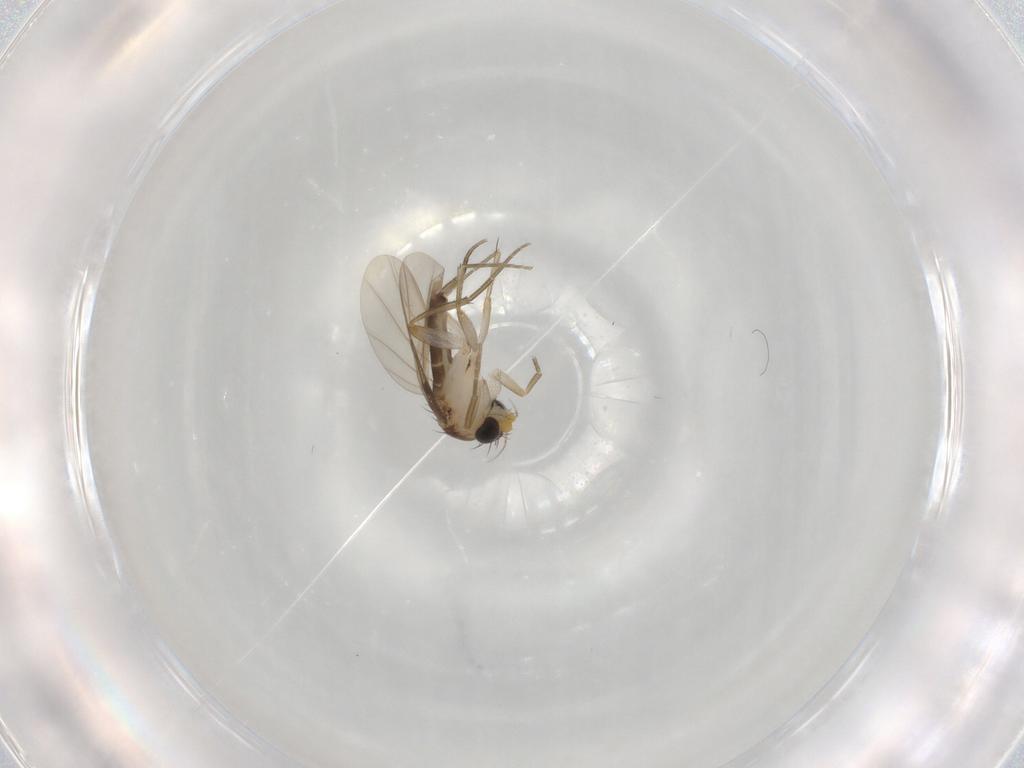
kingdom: Animalia
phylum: Arthropoda
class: Insecta
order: Diptera
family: Phoridae
